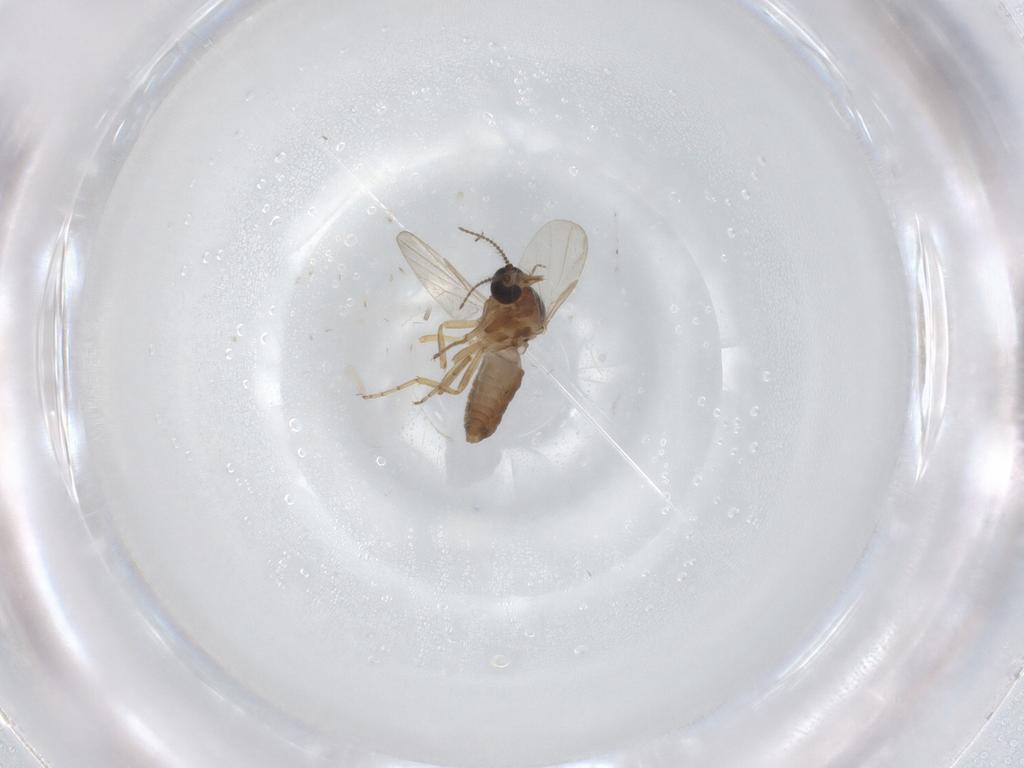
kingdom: Animalia
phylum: Arthropoda
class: Insecta
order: Diptera
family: Ceratopogonidae
